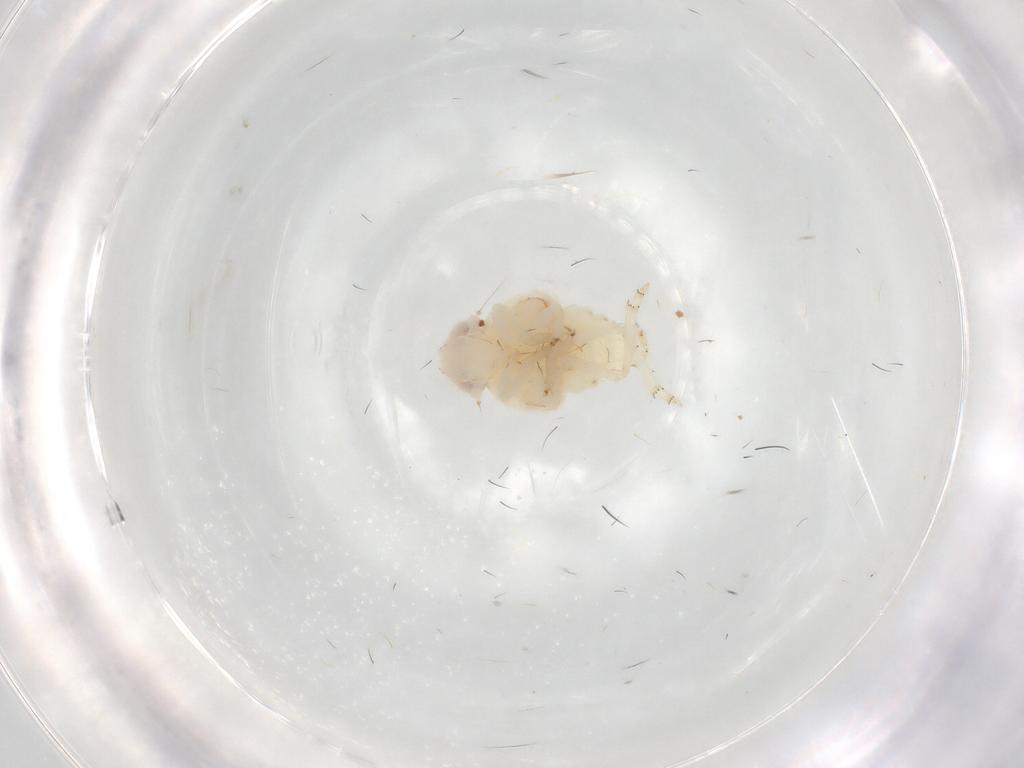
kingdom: Animalia
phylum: Arthropoda
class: Insecta
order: Hemiptera
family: Nogodinidae
